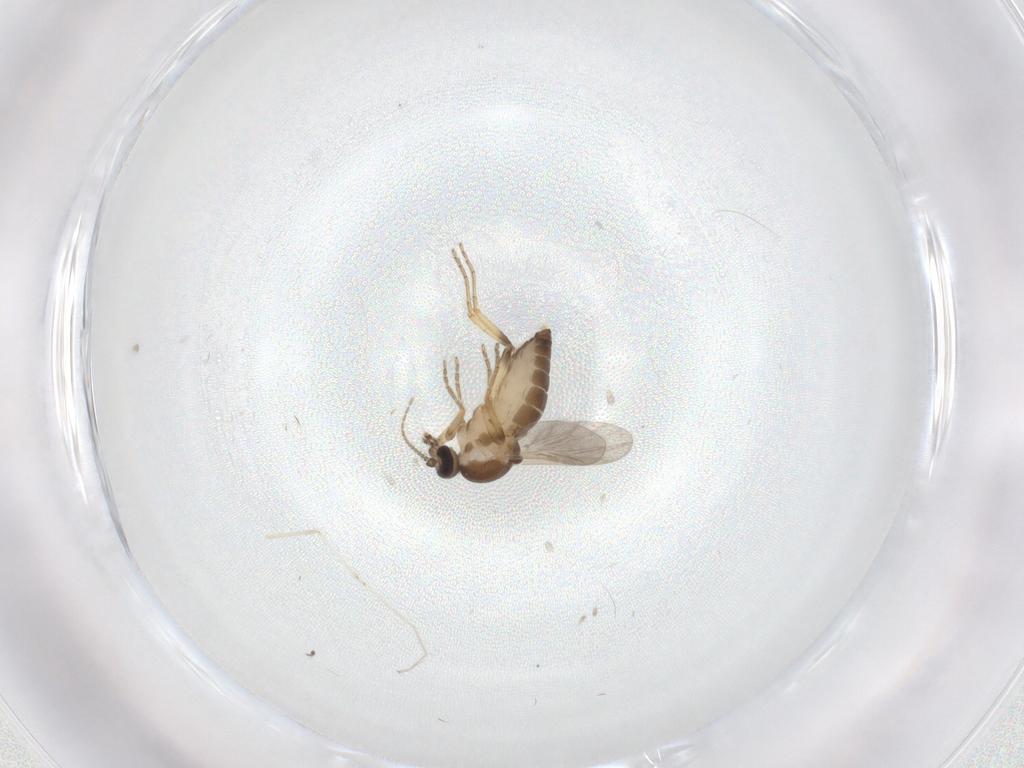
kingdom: Animalia
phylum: Arthropoda
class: Insecta
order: Diptera
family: Ceratopogonidae
